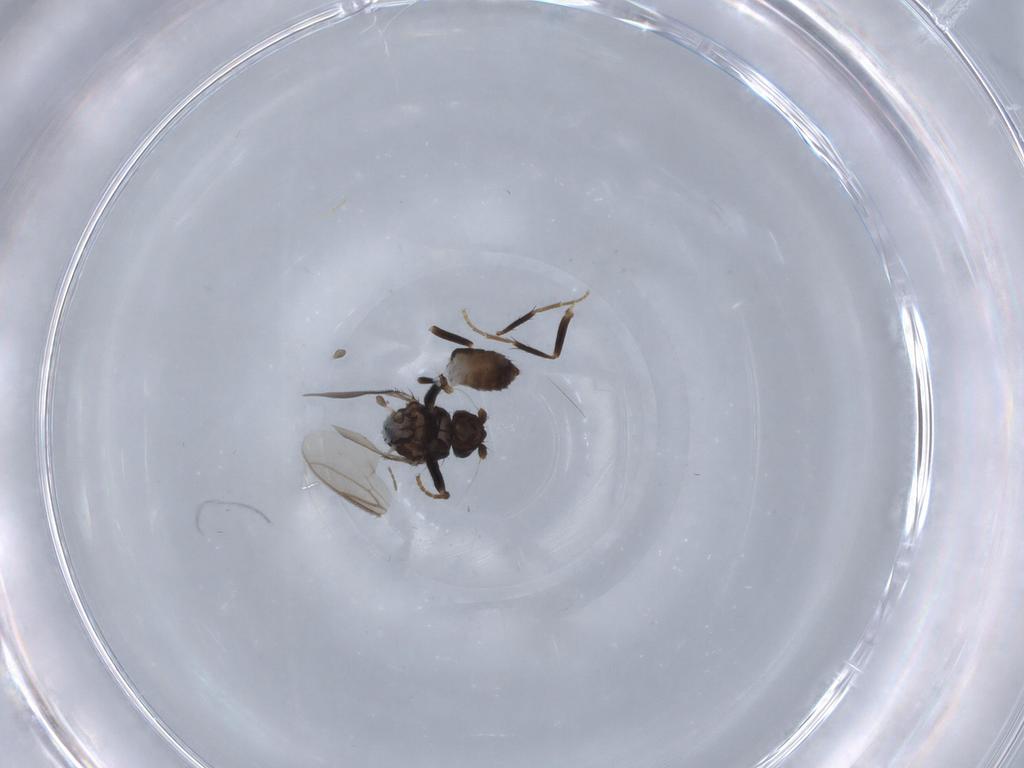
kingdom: Animalia
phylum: Arthropoda
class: Insecta
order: Diptera
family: Sphaeroceridae
